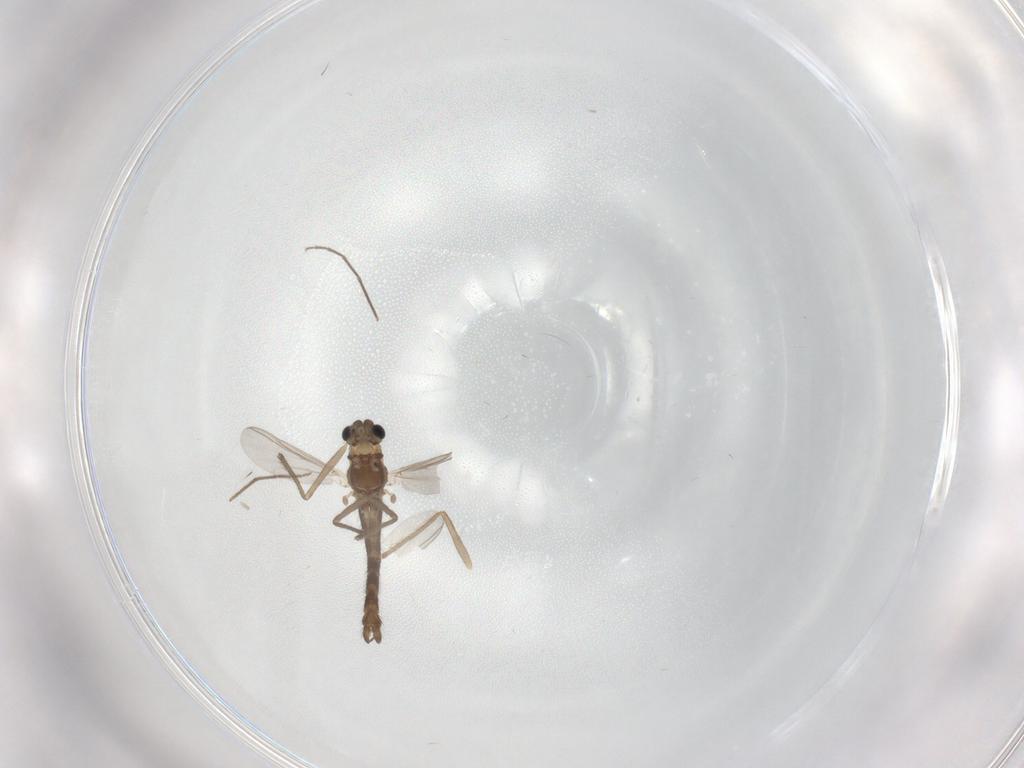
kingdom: Animalia
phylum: Arthropoda
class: Insecta
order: Diptera
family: Chironomidae
